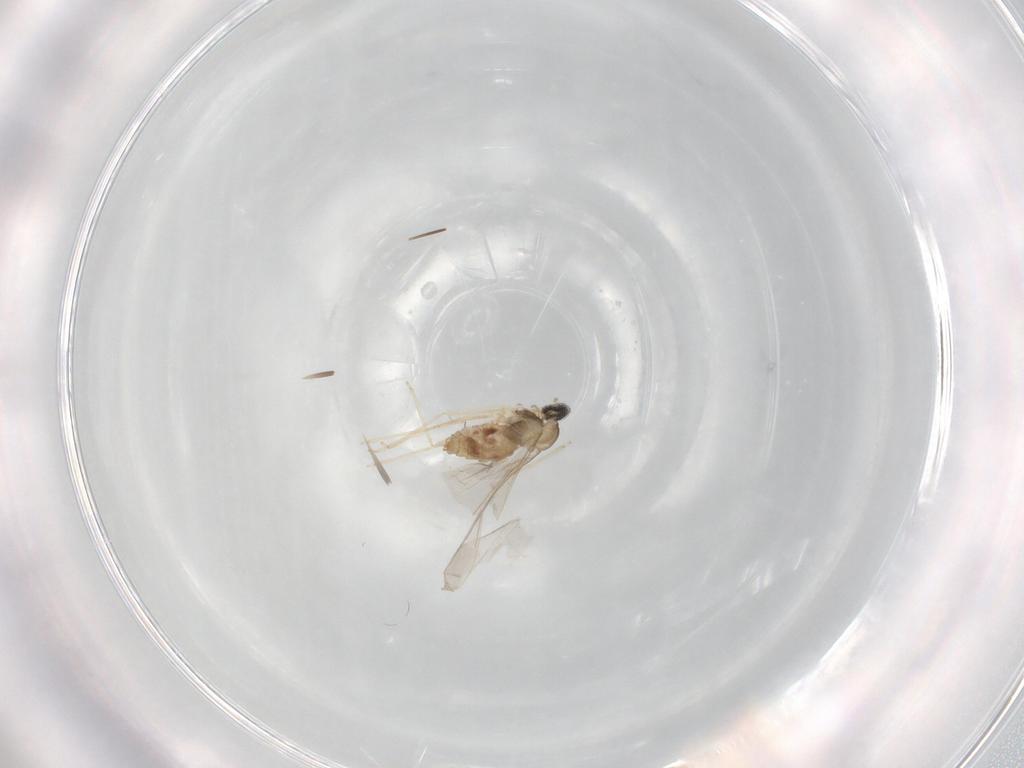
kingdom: Animalia
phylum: Arthropoda
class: Insecta
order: Diptera
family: Cecidomyiidae
